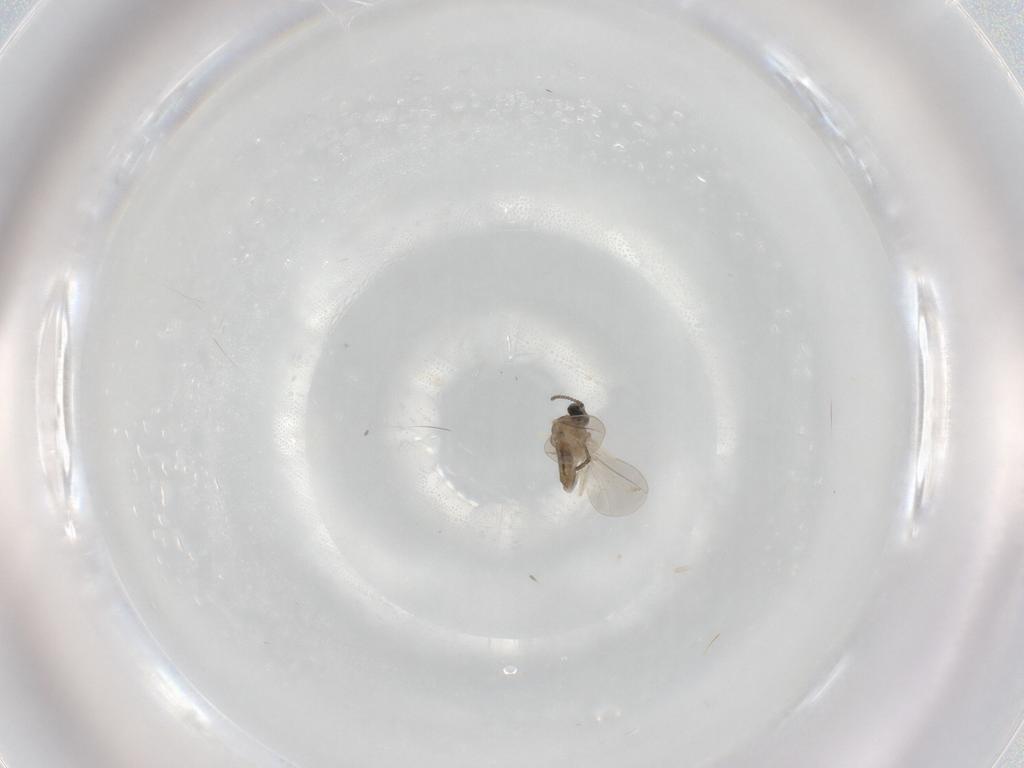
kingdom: Animalia
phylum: Arthropoda
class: Insecta
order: Diptera
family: Cecidomyiidae
